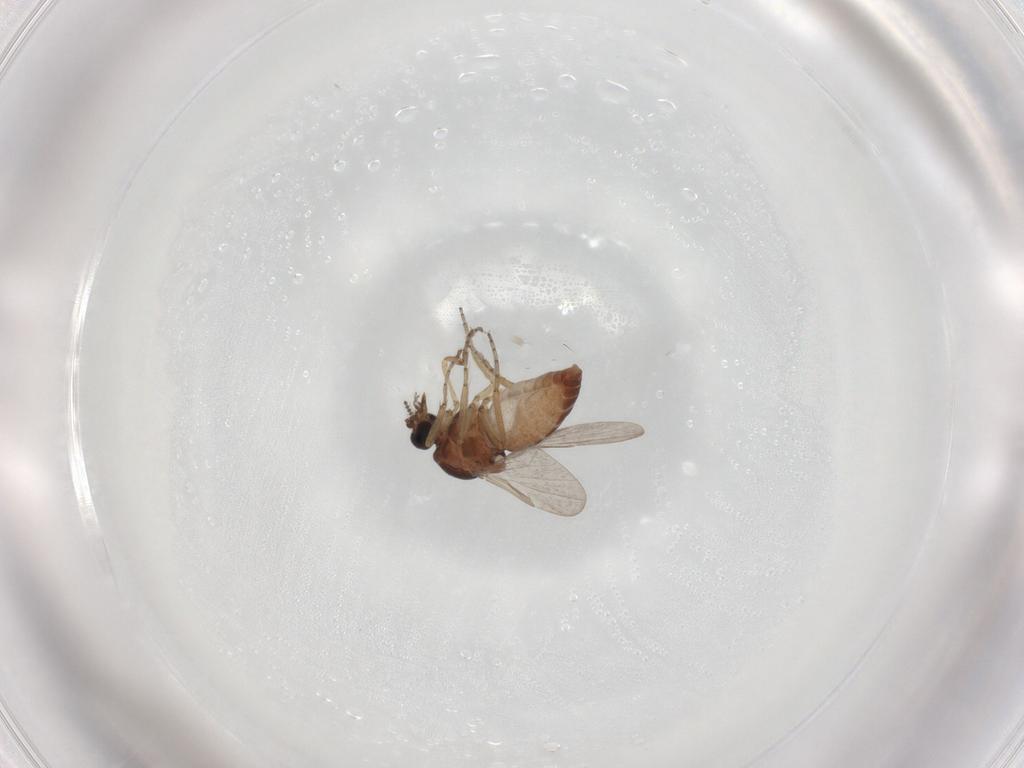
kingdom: Animalia
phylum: Arthropoda
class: Insecta
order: Diptera
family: Ceratopogonidae
